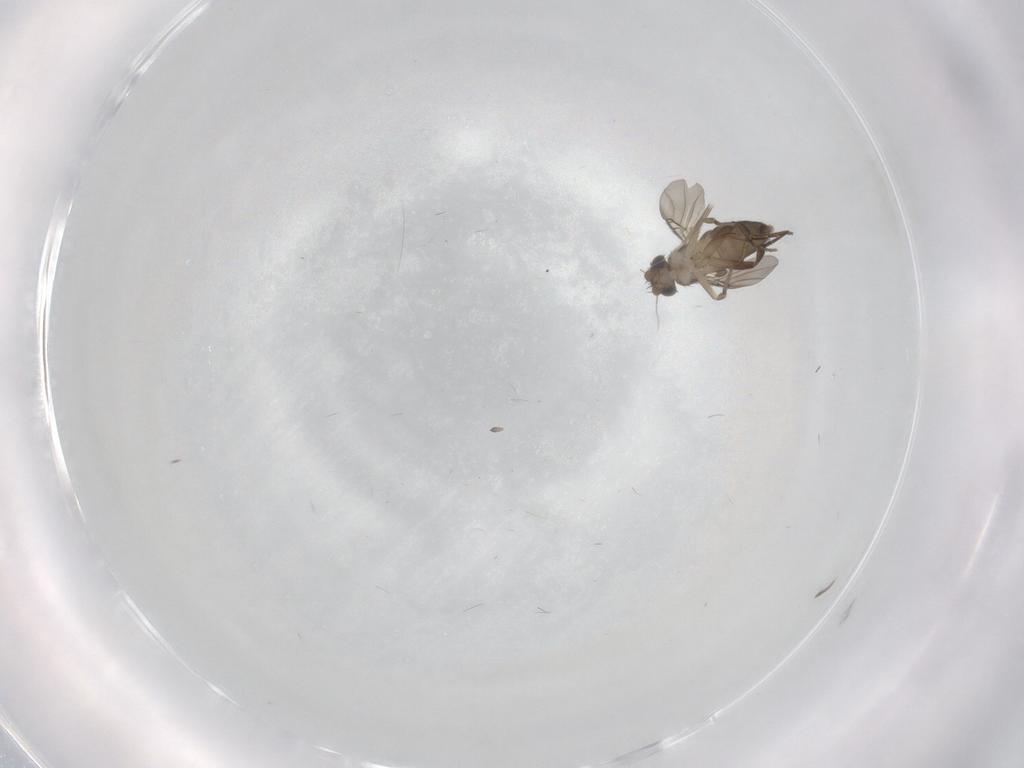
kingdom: Animalia
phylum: Arthropoda
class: Insecta
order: Diptera
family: Phoridae
